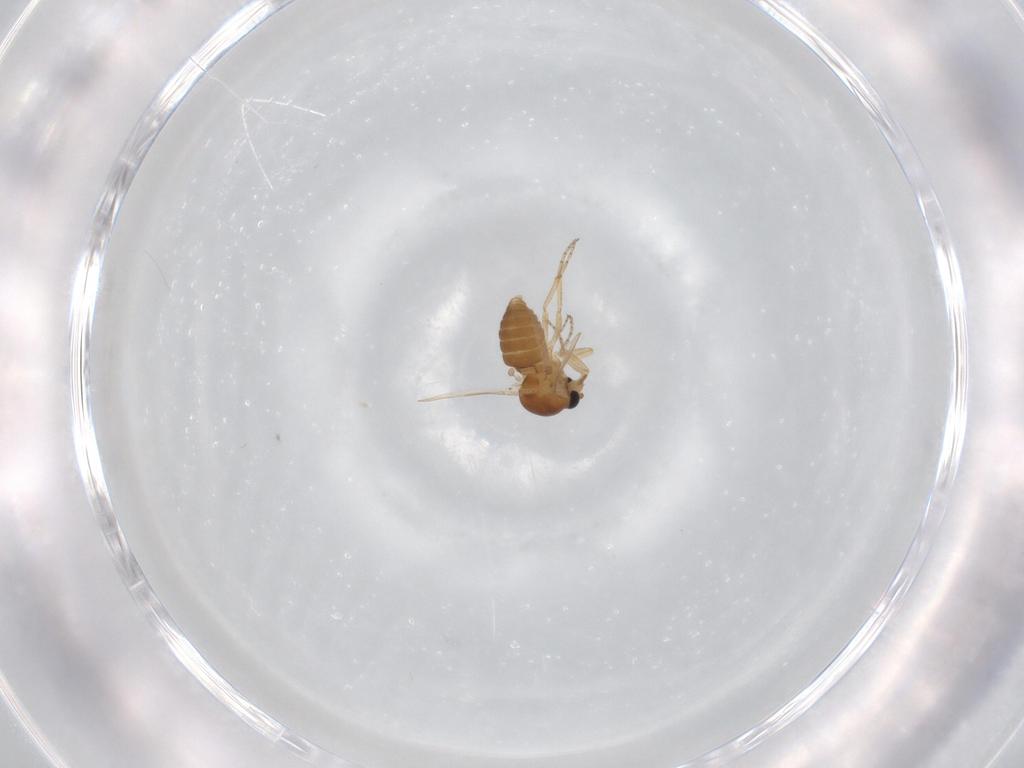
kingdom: Animalia
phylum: Arthropoda
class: Insecta
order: Diptera
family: Ceratopogonidae
